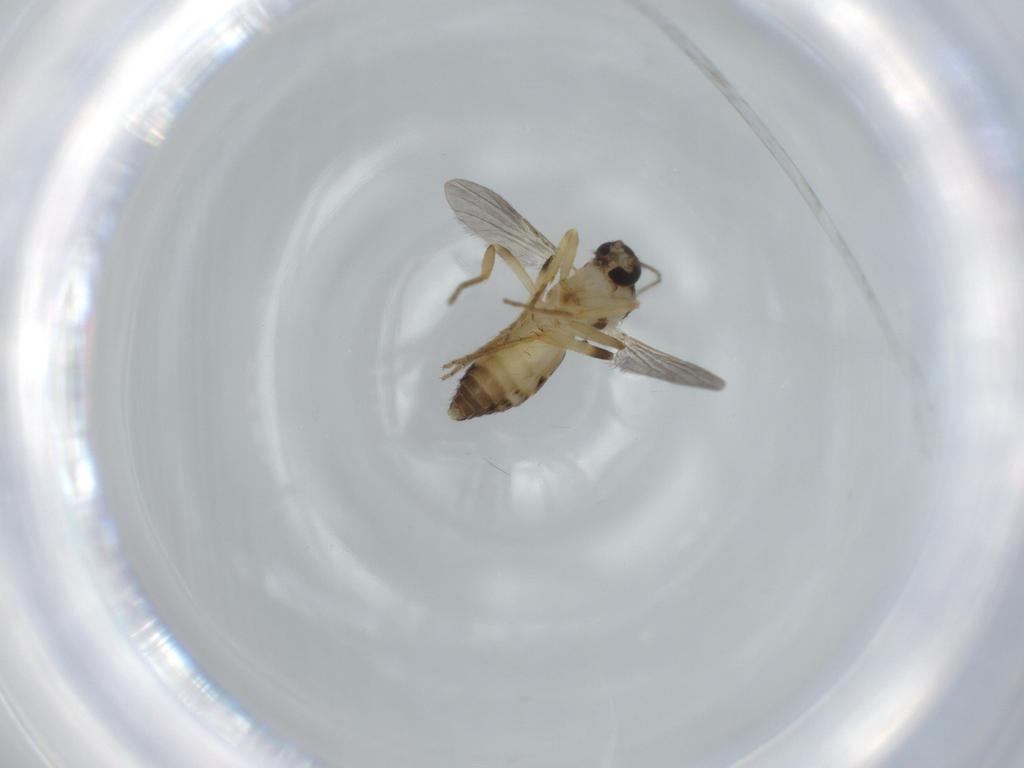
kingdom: Animalia
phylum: Arthropoda
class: Insecta
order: Diptera
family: Ceratopogonidae
